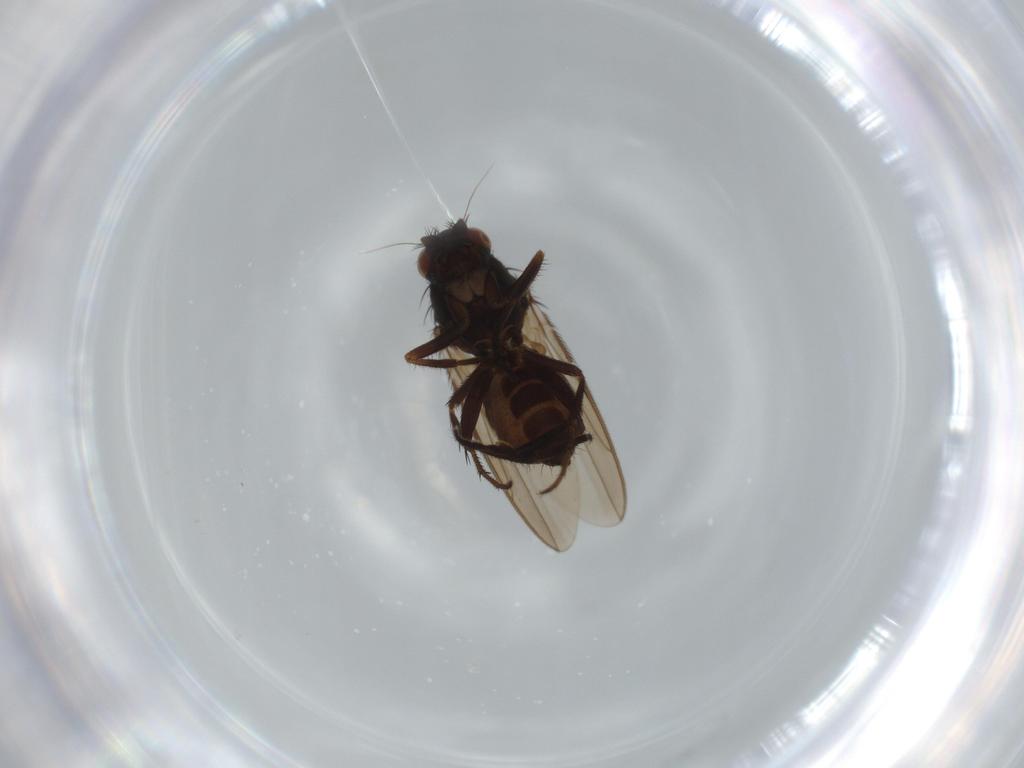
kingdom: Animalia
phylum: Arthropoda
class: Insecta
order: Diptera
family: Sphaeroceridae
